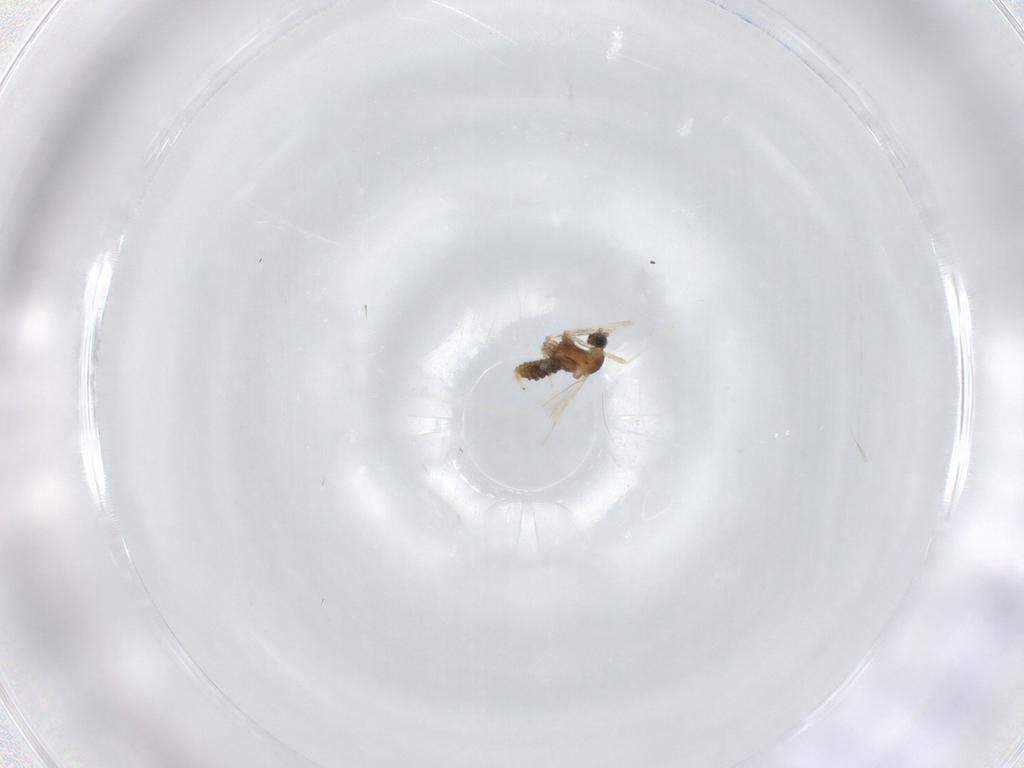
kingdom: Animalia
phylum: Arthropoda
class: Insecta
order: Diptera
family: Cecidomyiidae
